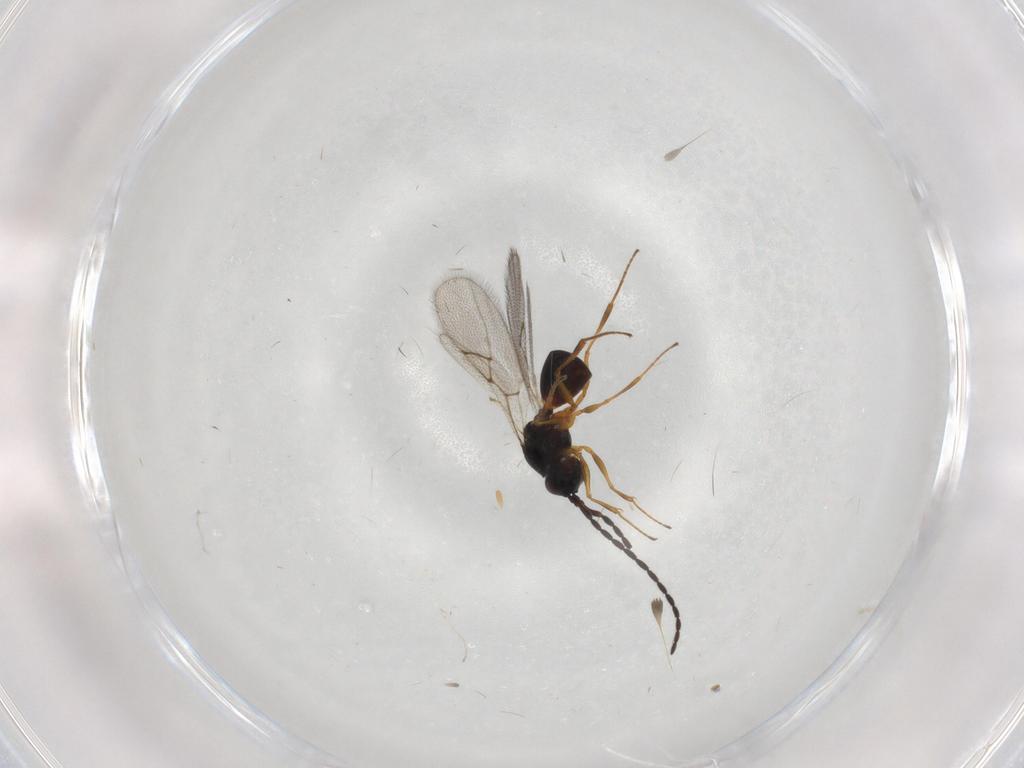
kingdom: Animalia
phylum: Arthropoda
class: Insecta
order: Hymenoptera
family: Figitidae
